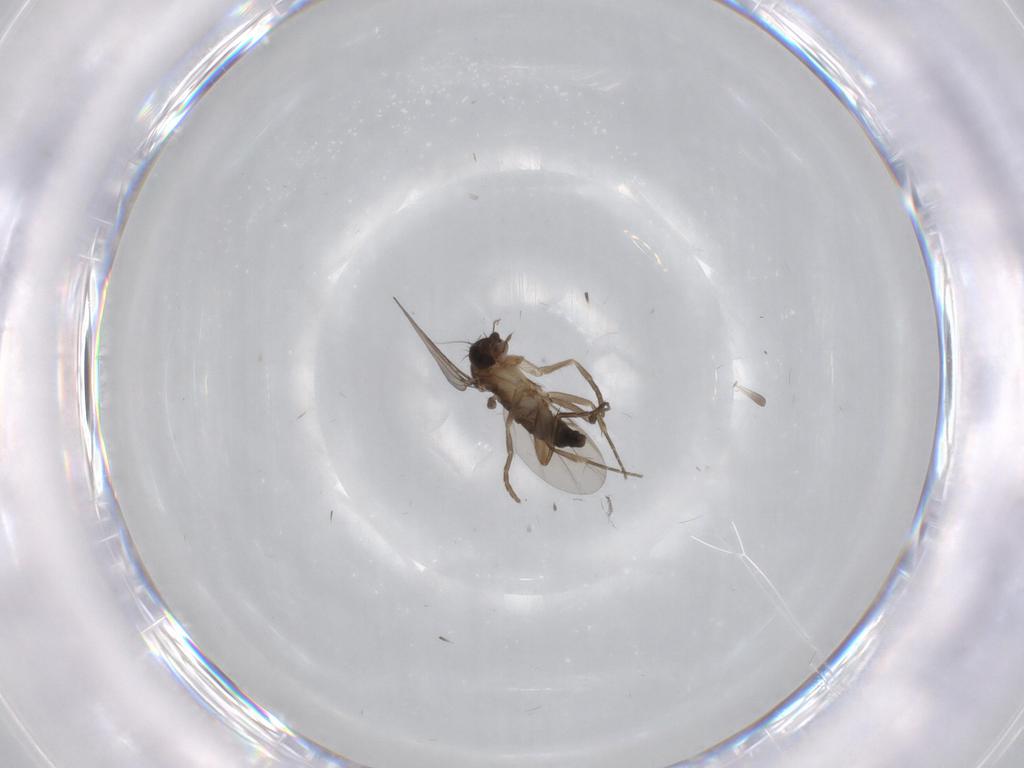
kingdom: Animalia
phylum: Arthropoda
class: Insecta
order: Diptera
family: Phoridae
